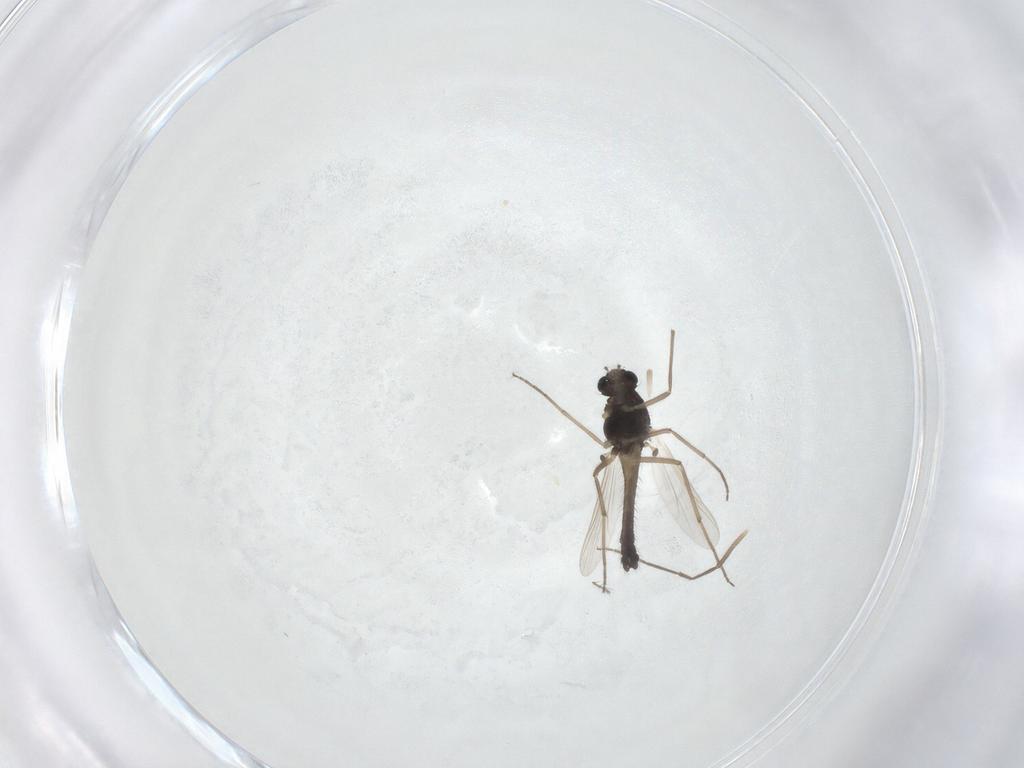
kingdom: Animalia
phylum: Arthropoda
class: Insecta
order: Diptera
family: Chironomidae
